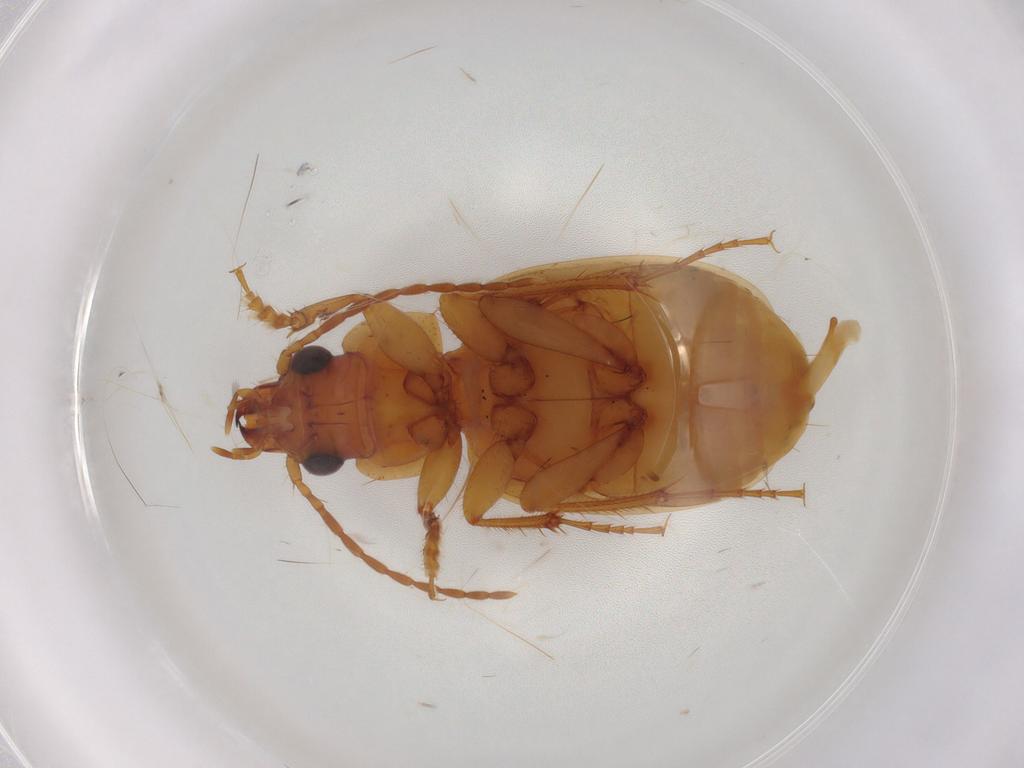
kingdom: Animalia
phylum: Arthropoda
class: Insecta
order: Coleoptera
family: Carabidae
